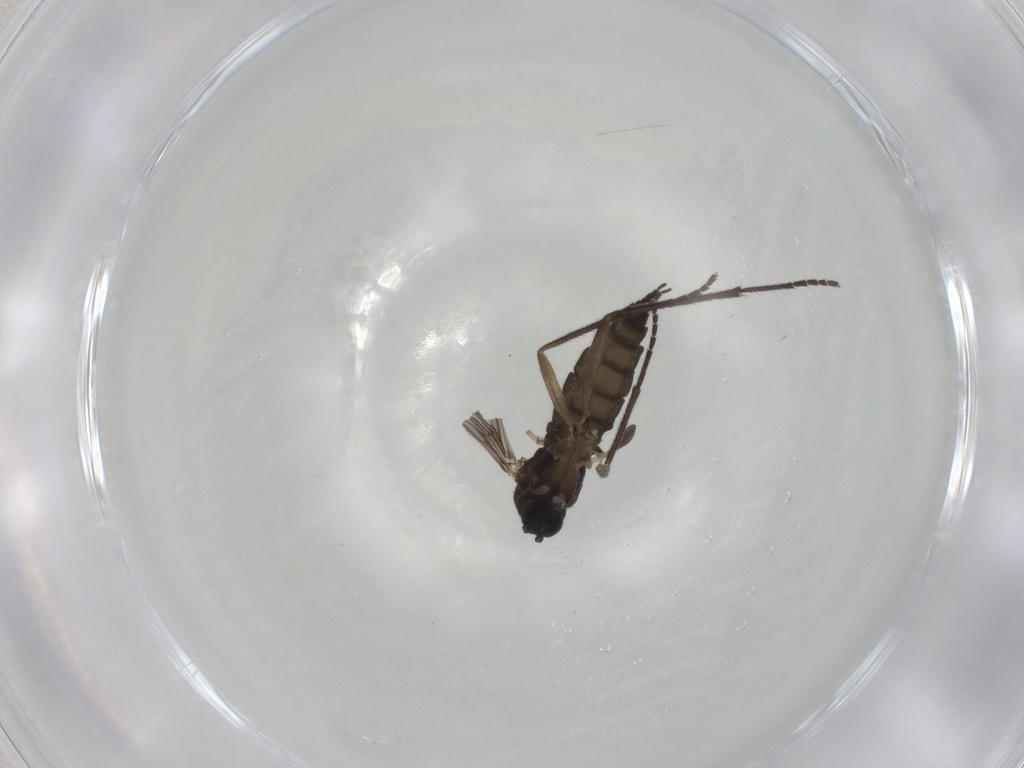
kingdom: Animalia
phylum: Arthropoda
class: Insecta
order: Diptera
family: Sciaridae
